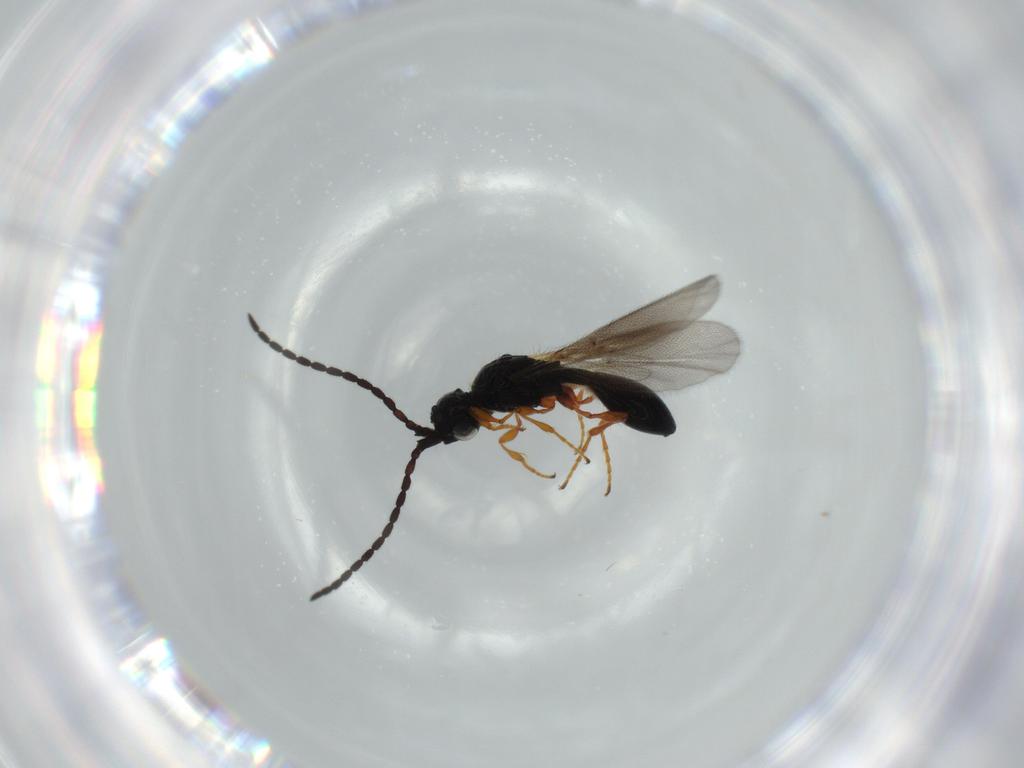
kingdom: Animalia
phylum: Arthropoda
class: Insecta
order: Hymenoptera
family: Diapriidae
